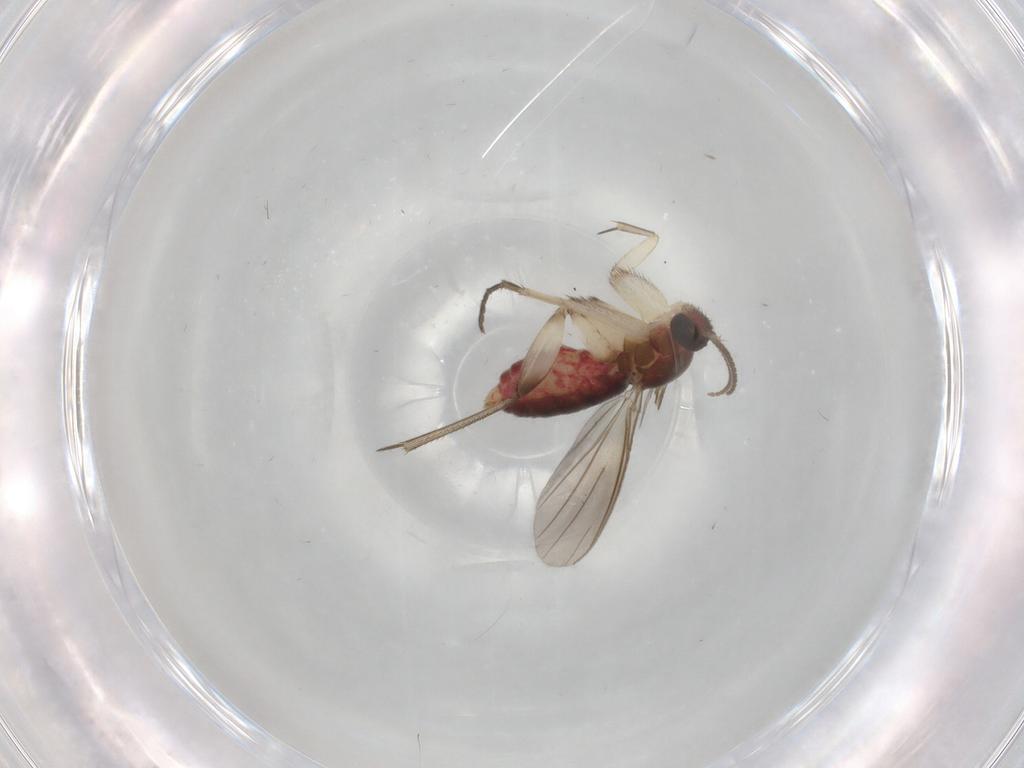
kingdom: Animalia
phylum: Arthropoda
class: Insecta
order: Diptera
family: Mycetophilidae
